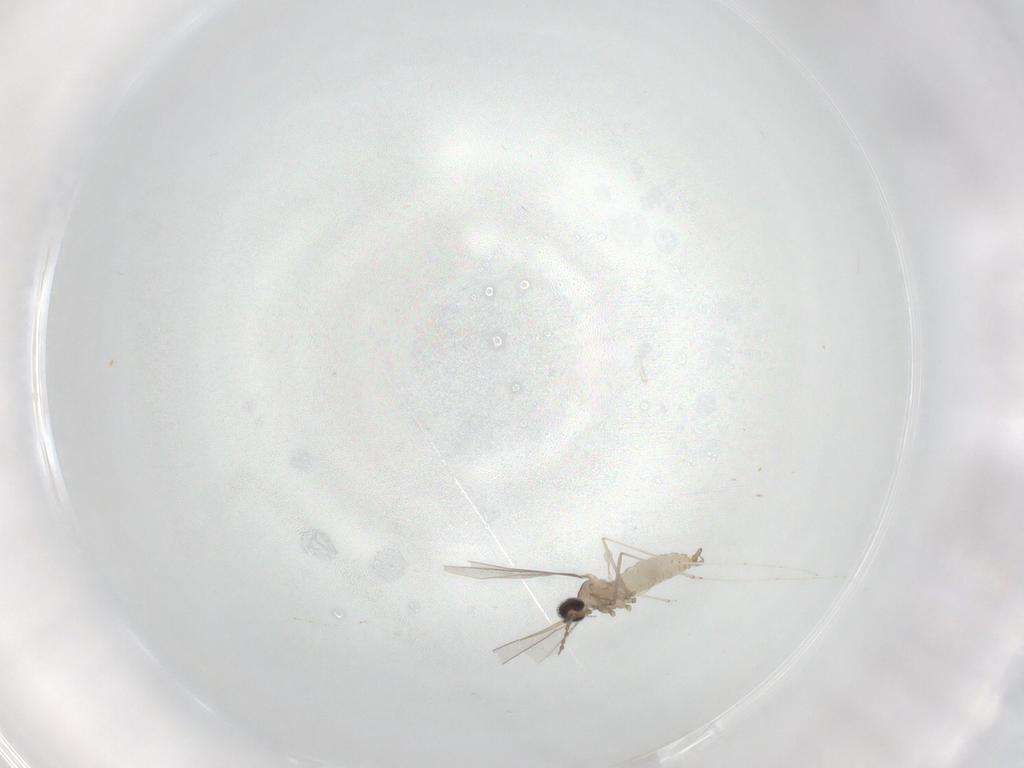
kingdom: Animalia
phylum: Arthropoda
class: Insecta
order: Diptera
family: Cecidomyiidae
